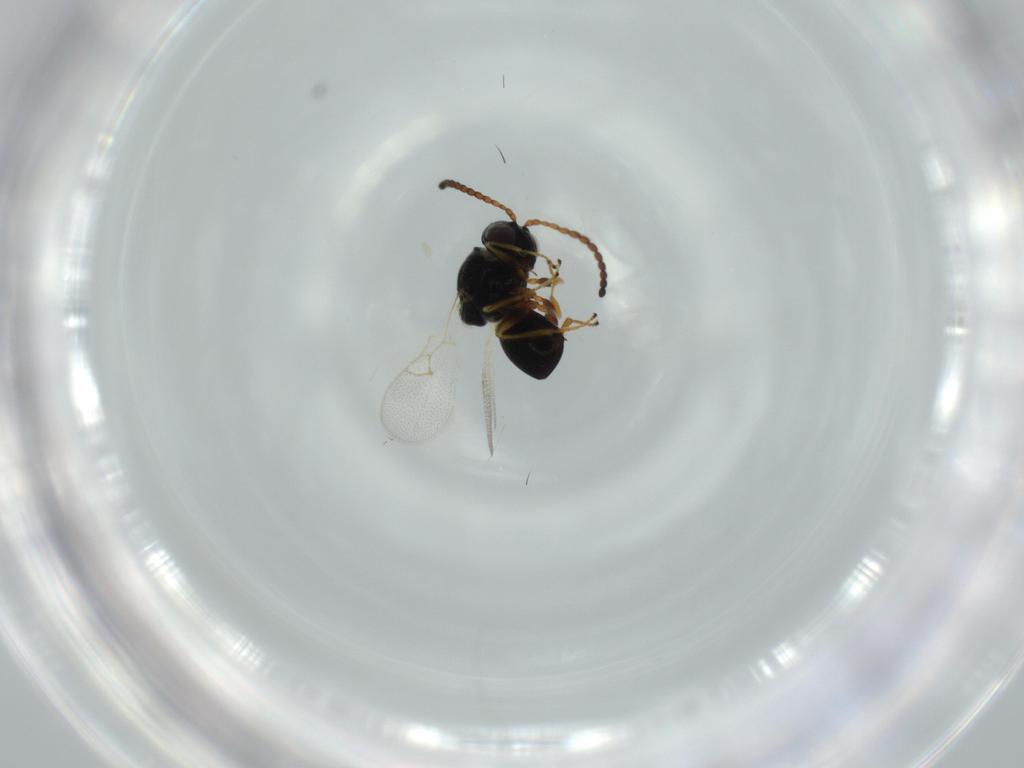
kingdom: Animalia
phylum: Arthropoda
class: Insecta
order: Hymenoptera
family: Figitidae
